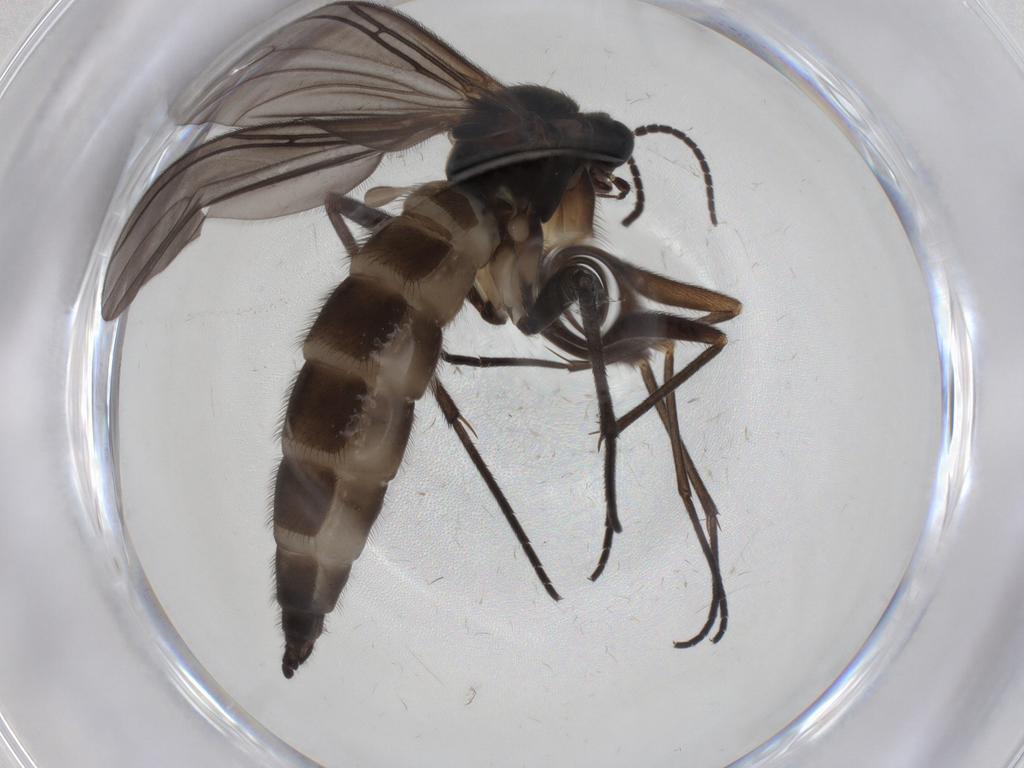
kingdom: Animalia
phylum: Arthropoda
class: Insecta
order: Diptera
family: Sciaridae
